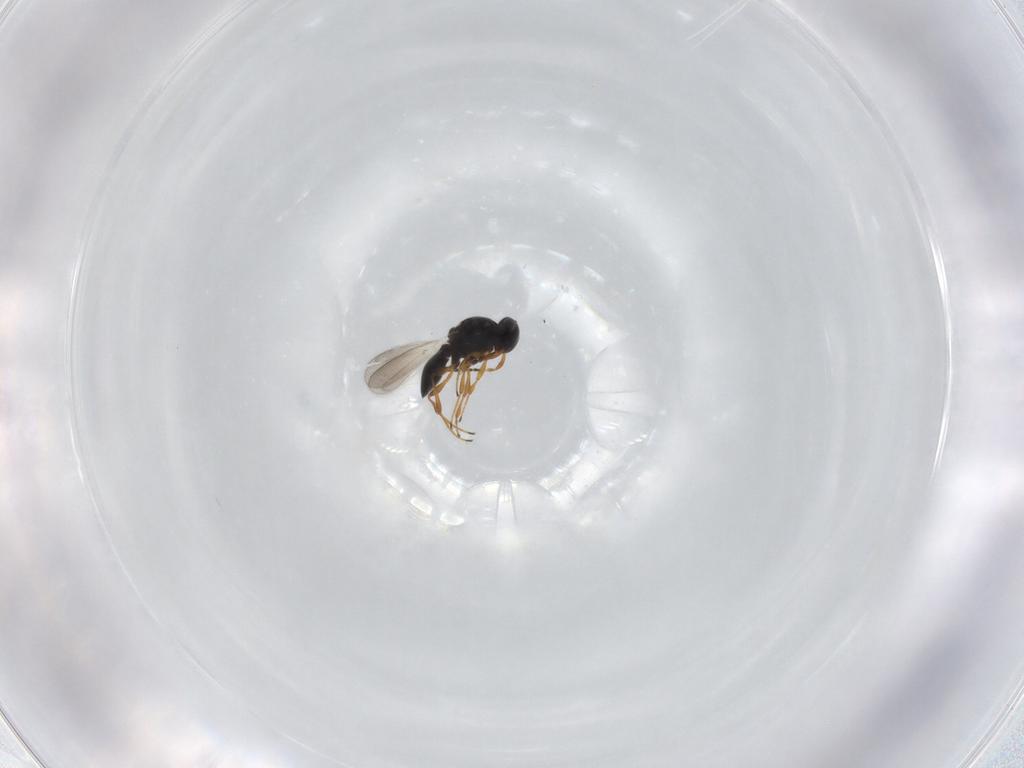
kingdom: Animalia
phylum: Arthropoda
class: Insecta
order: Hymenoptera
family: Platygastridae
